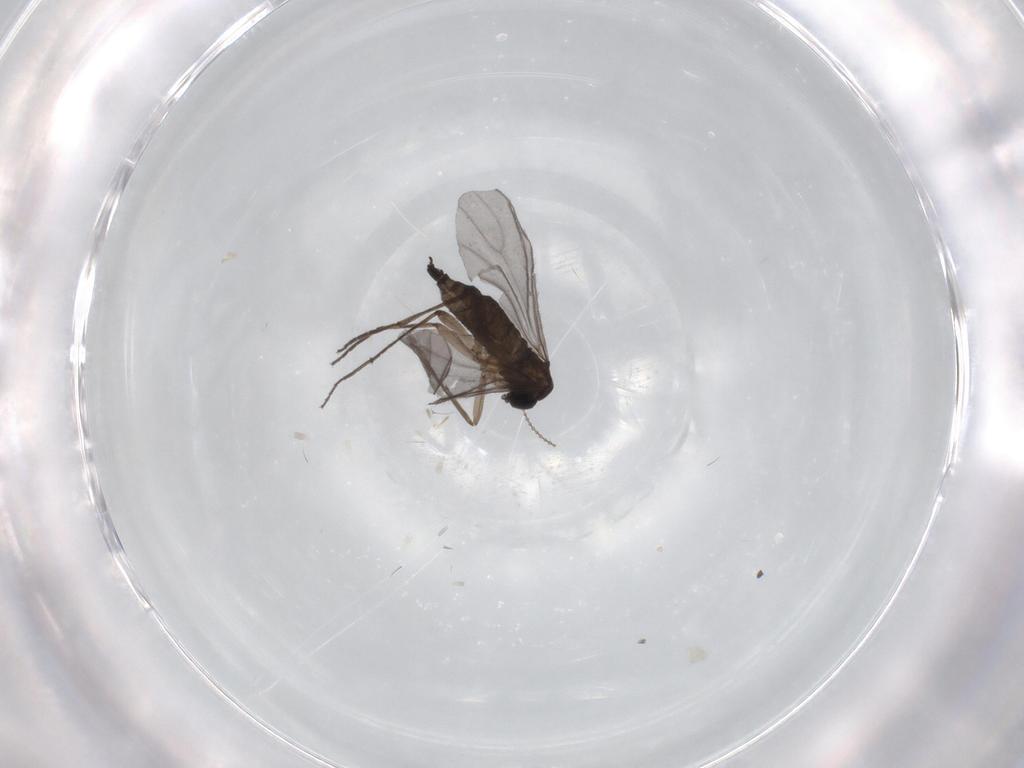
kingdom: Animalia
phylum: Arthropoda
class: Insecta
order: Diptera
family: Sciaridae
